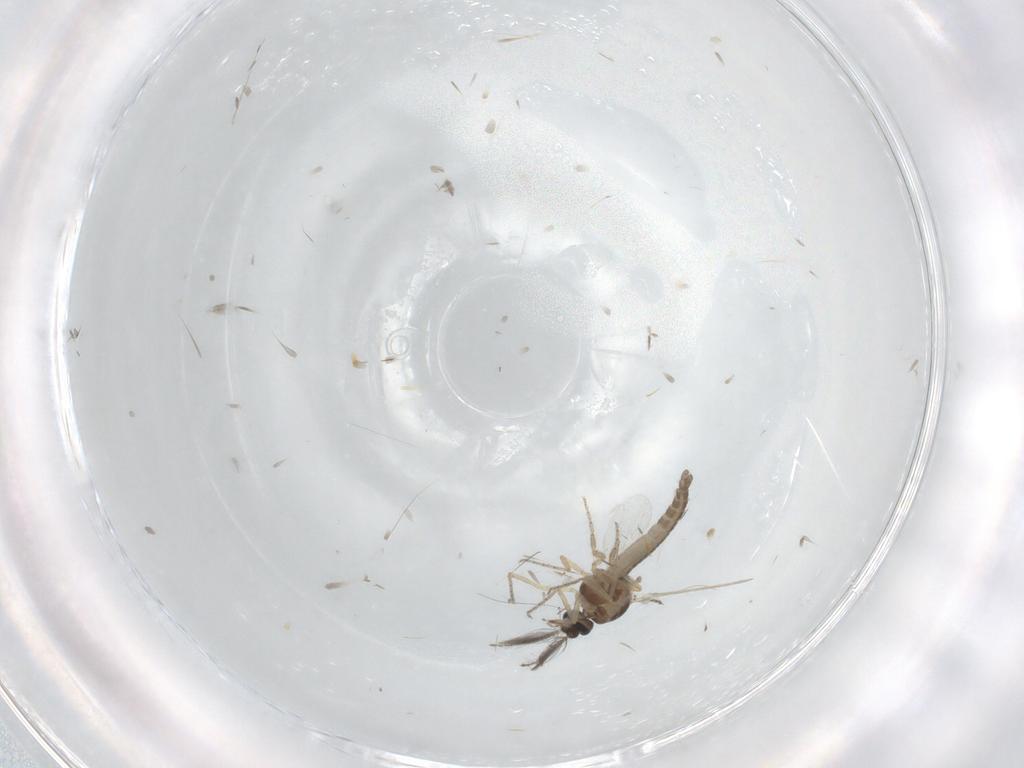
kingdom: Animalia
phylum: Arthropoda
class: Insecta
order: Diptera
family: Ceratopogonidae
